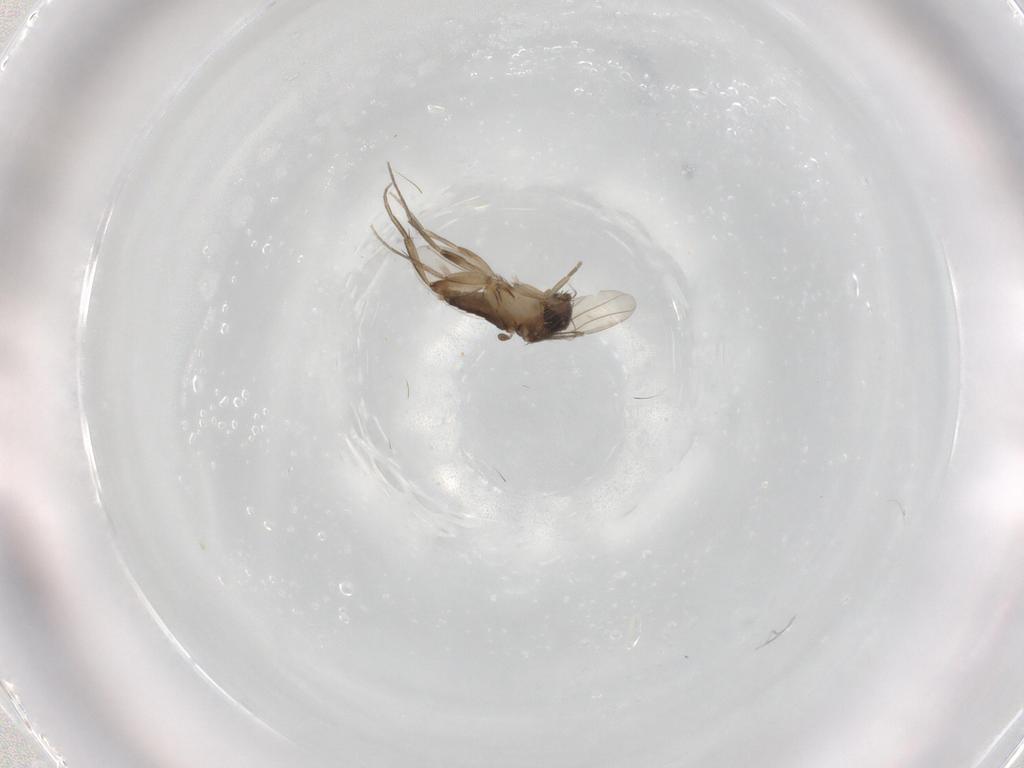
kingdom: Animalia
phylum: Arthropoda
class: Insecta
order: Diptera
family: Phoridae
